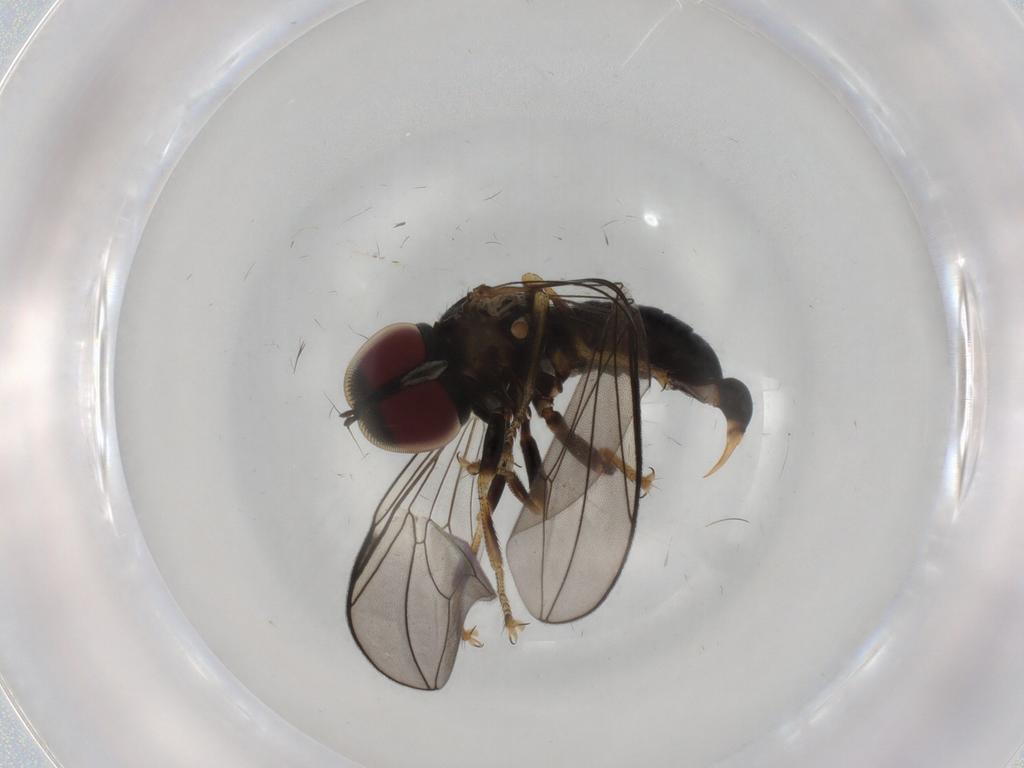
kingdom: Animalia
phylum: Arthropoda
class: Insecta
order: Diptera
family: Pipunculidae
